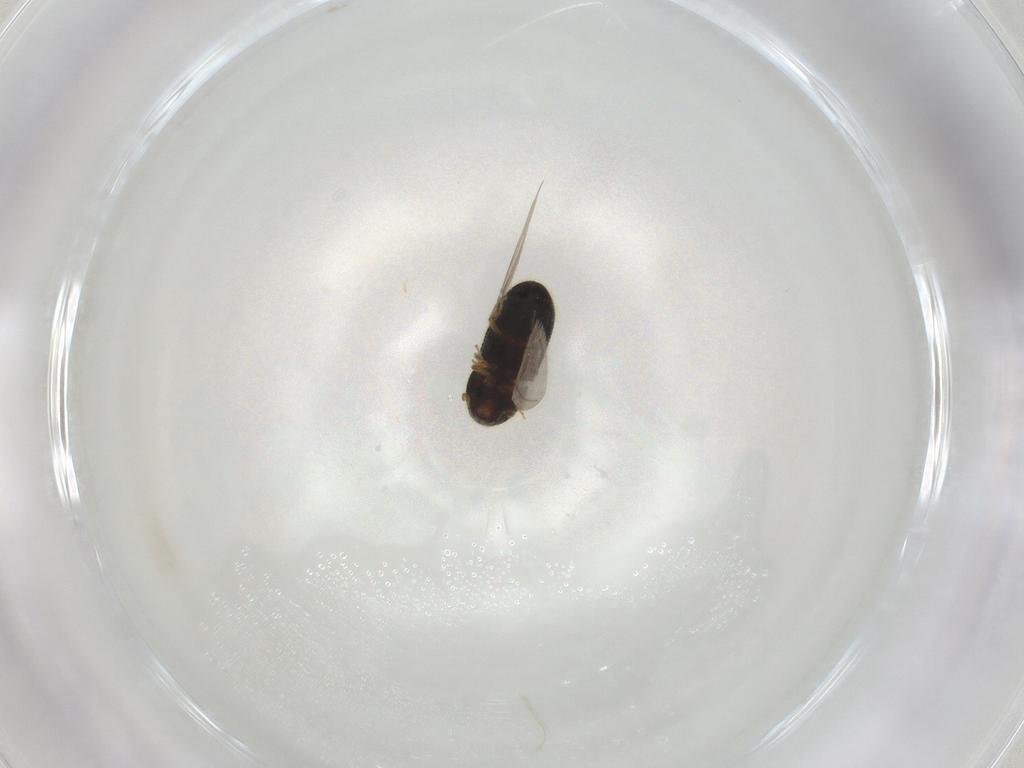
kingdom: Animalia
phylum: Arthropoda
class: Insecta
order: Coleoptera
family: Curculionidae
